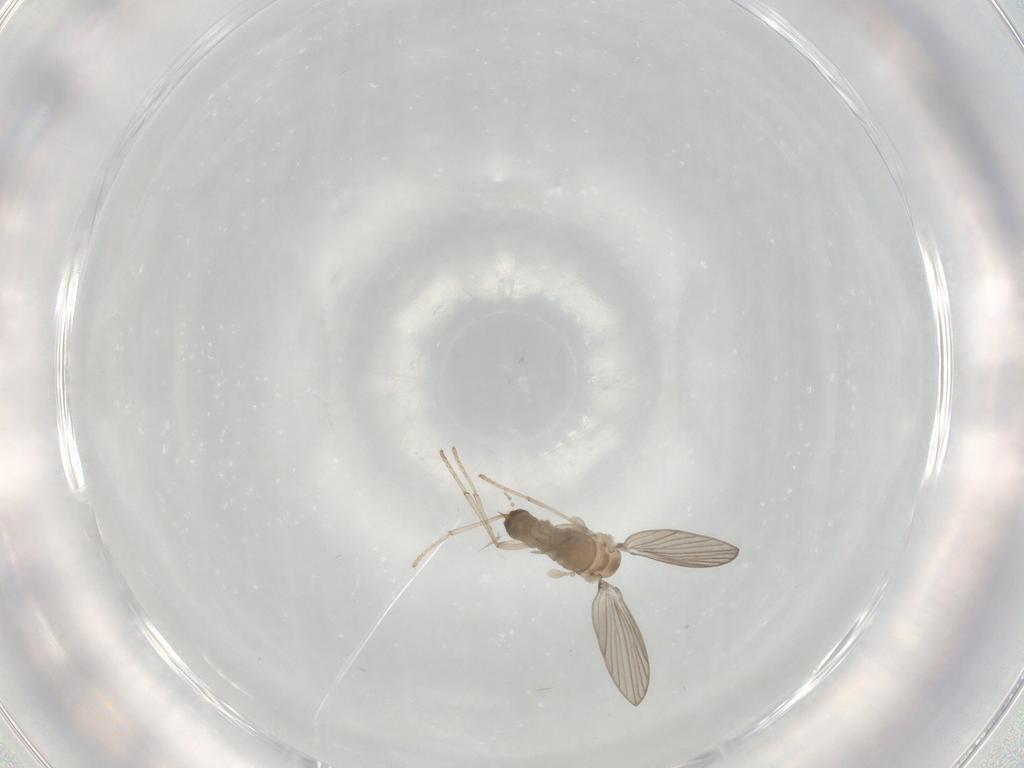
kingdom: Animalia
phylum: Arthropoda
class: Insecta
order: Diptera
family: Psychodidae
